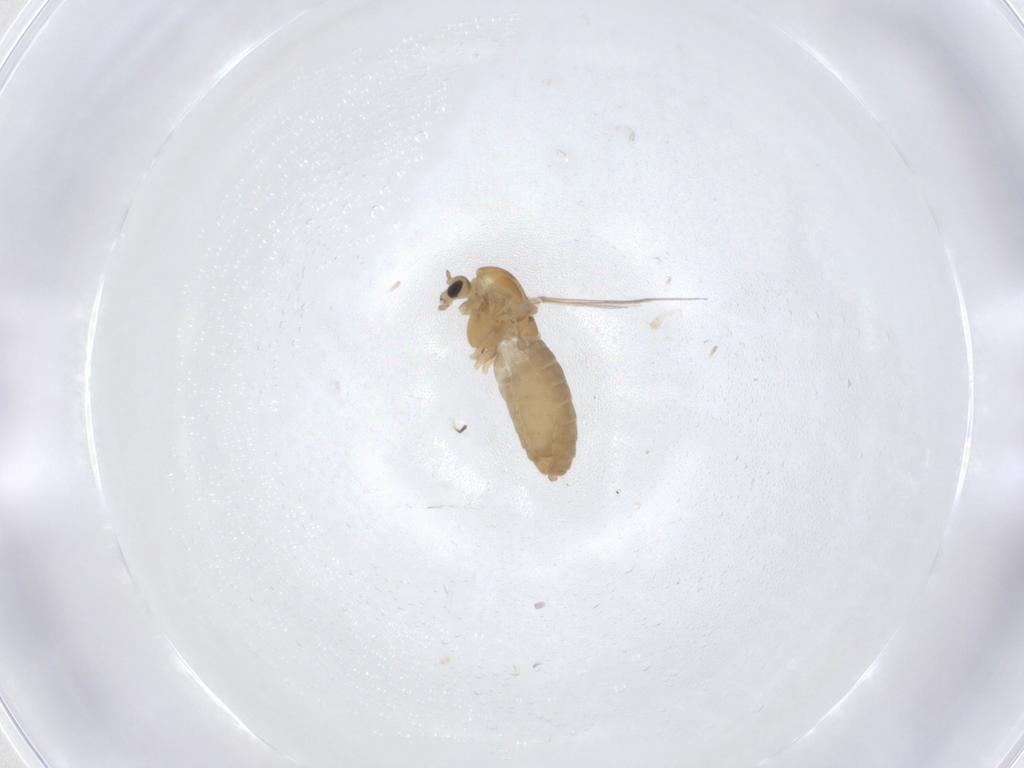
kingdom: Animalia
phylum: Arthropoda
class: Insecta
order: Diptera
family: Chironomidae
